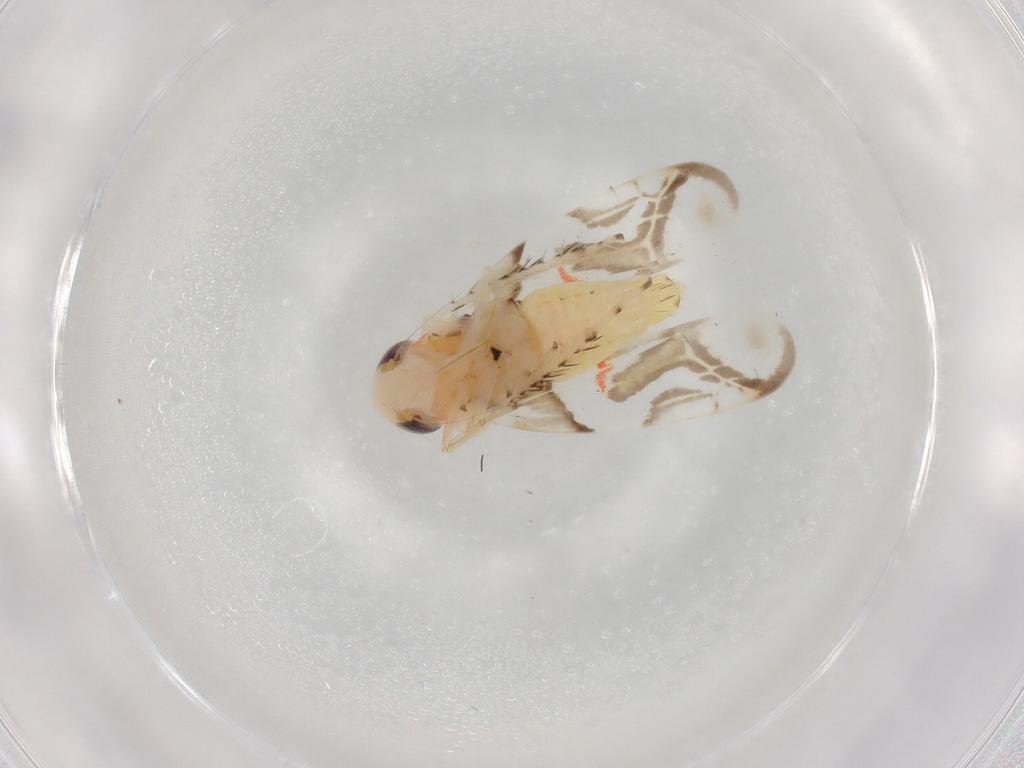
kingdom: Animalia
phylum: Arthropoda
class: Insecta
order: Hemiptera
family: Cicadellidae
